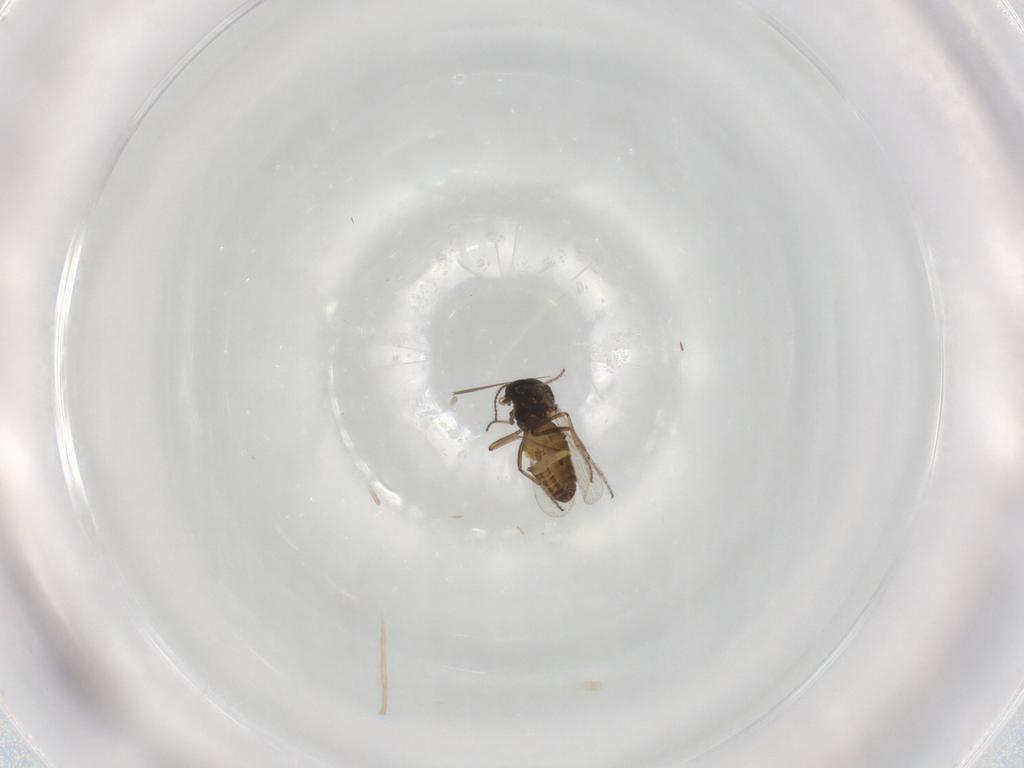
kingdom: Animalia
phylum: Arthropoda
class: Insecta
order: Diptera
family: Ceratopogonidae
